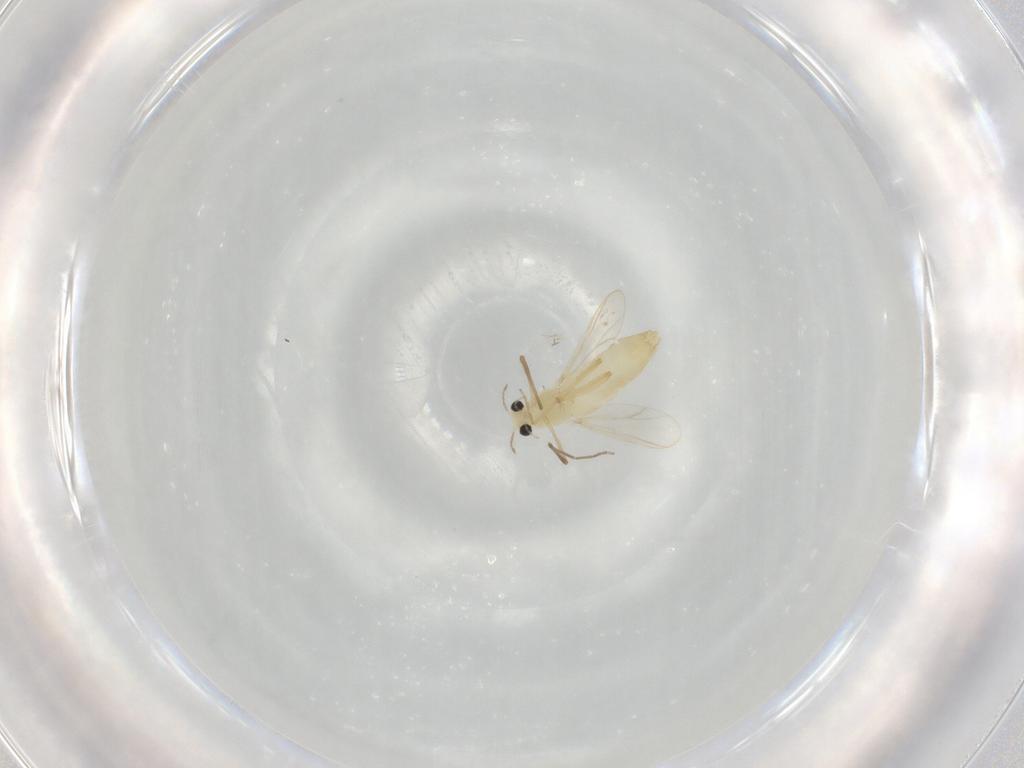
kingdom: Animalia
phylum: Arthropoda
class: Insecta
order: Diptera
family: Chironomidae
